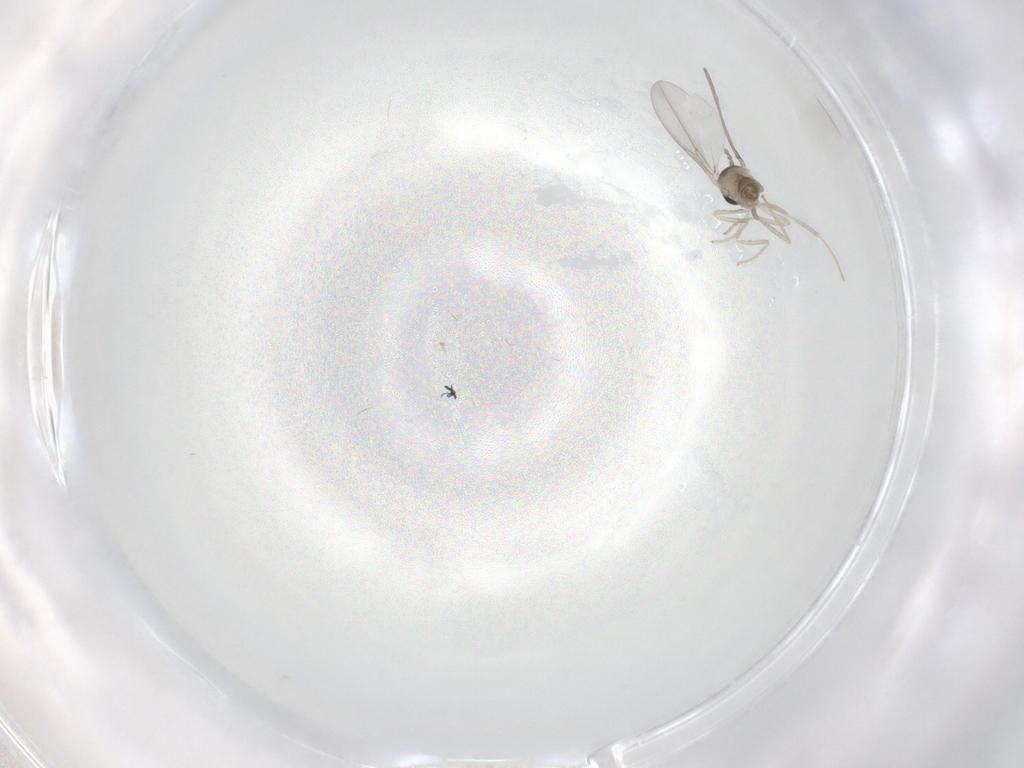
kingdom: Animalia
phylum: Arthropoda
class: Insecta
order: Diptera
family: Cecidomyiidae
